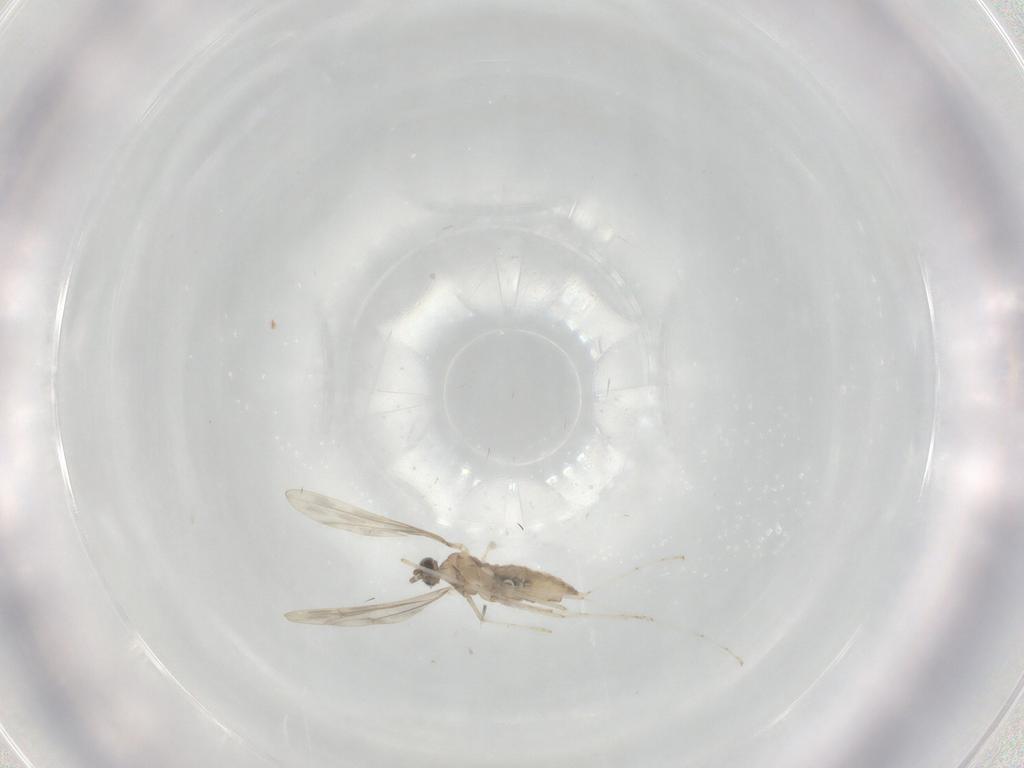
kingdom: Animalia
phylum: Arthropoda
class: Insecta
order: Diptera
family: Cecidomyiidae
